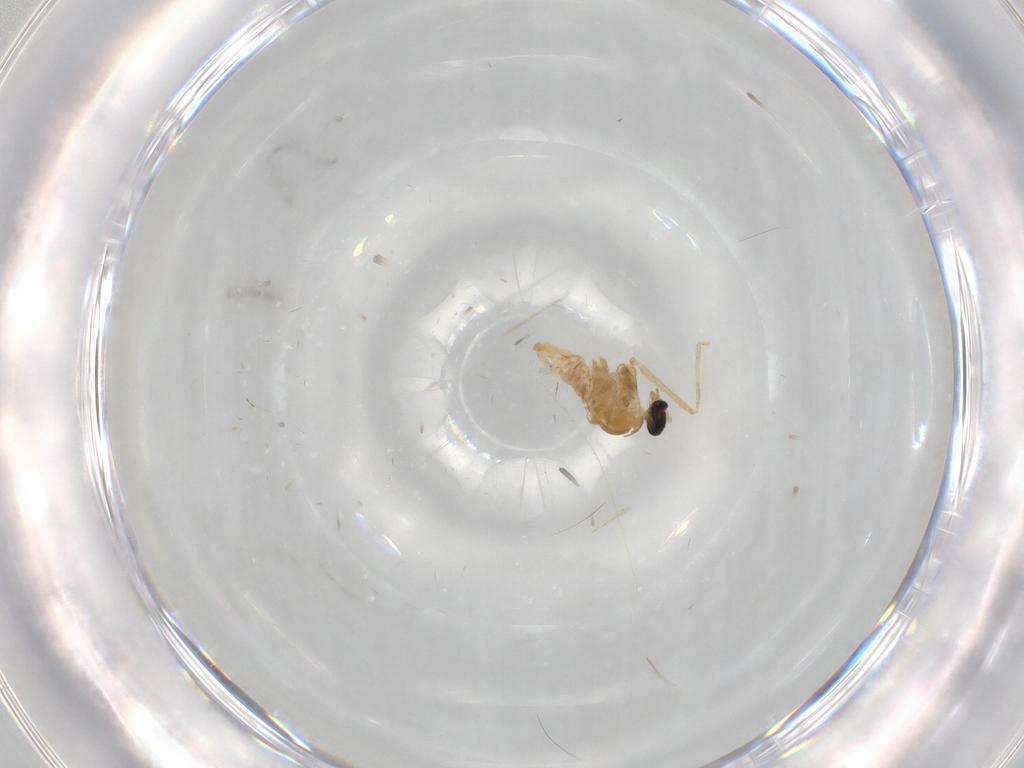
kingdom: Animalia
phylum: Arthropoda
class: Insecta
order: Diptera
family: Cecidomyiidae
